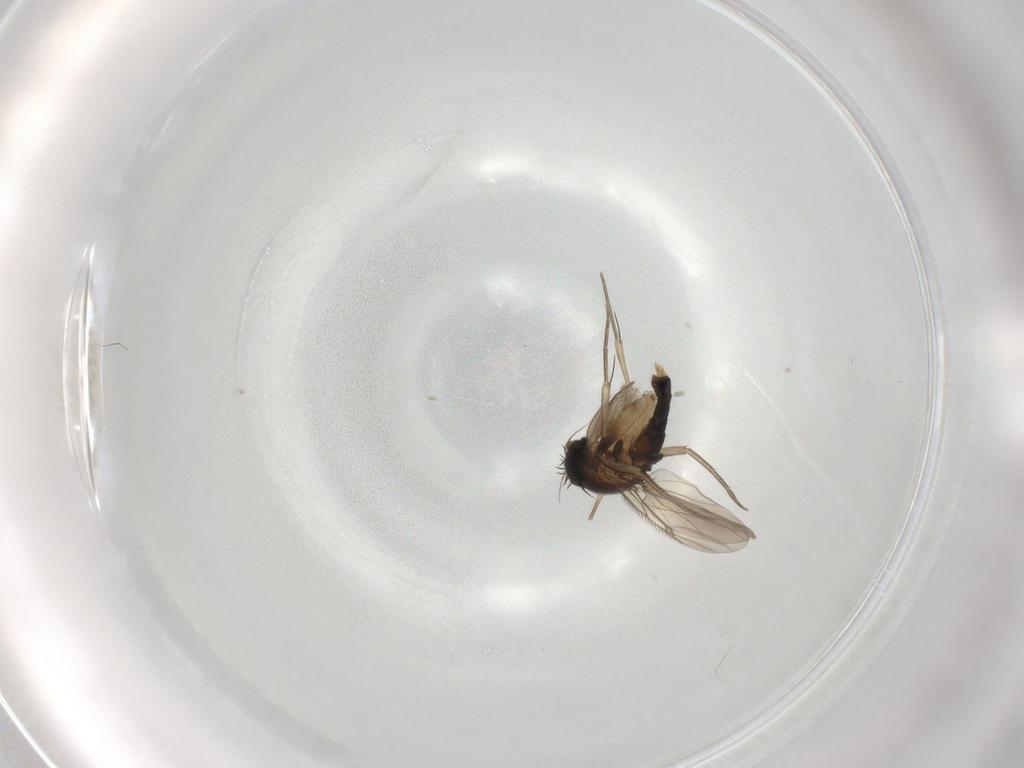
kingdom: Animalia
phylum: Arthropoda
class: Insecta
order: Diptera
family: Phoridae
